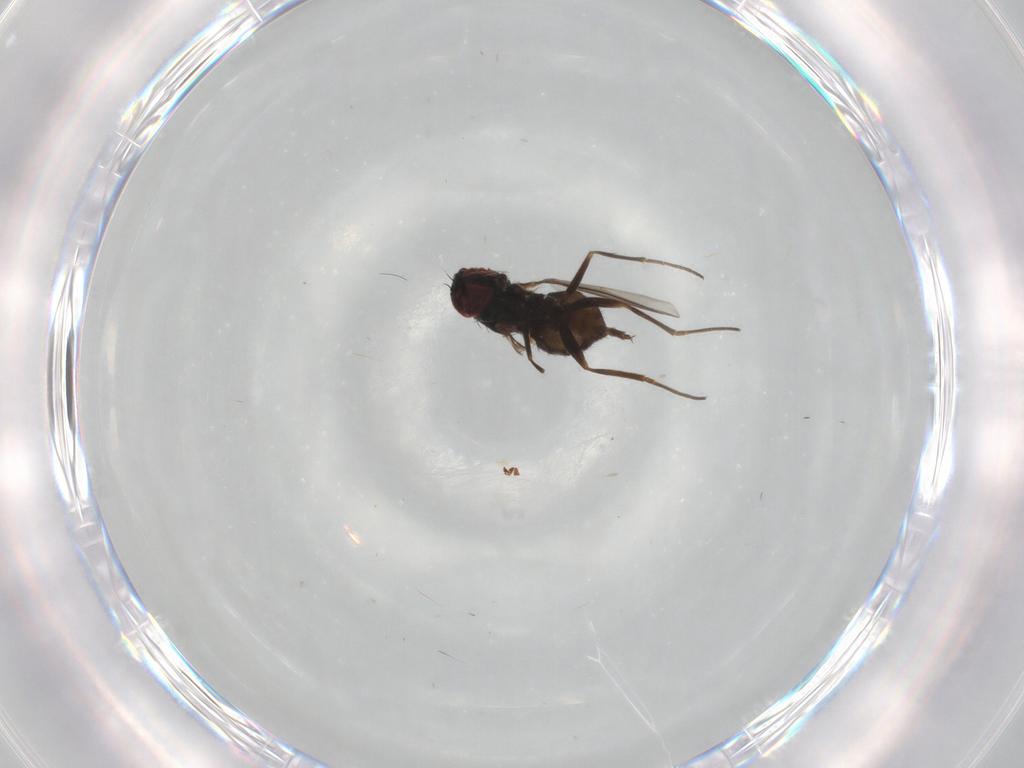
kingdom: Animalia
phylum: Arthropoda
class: Insecta
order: Diptera
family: Dolichopodidae
